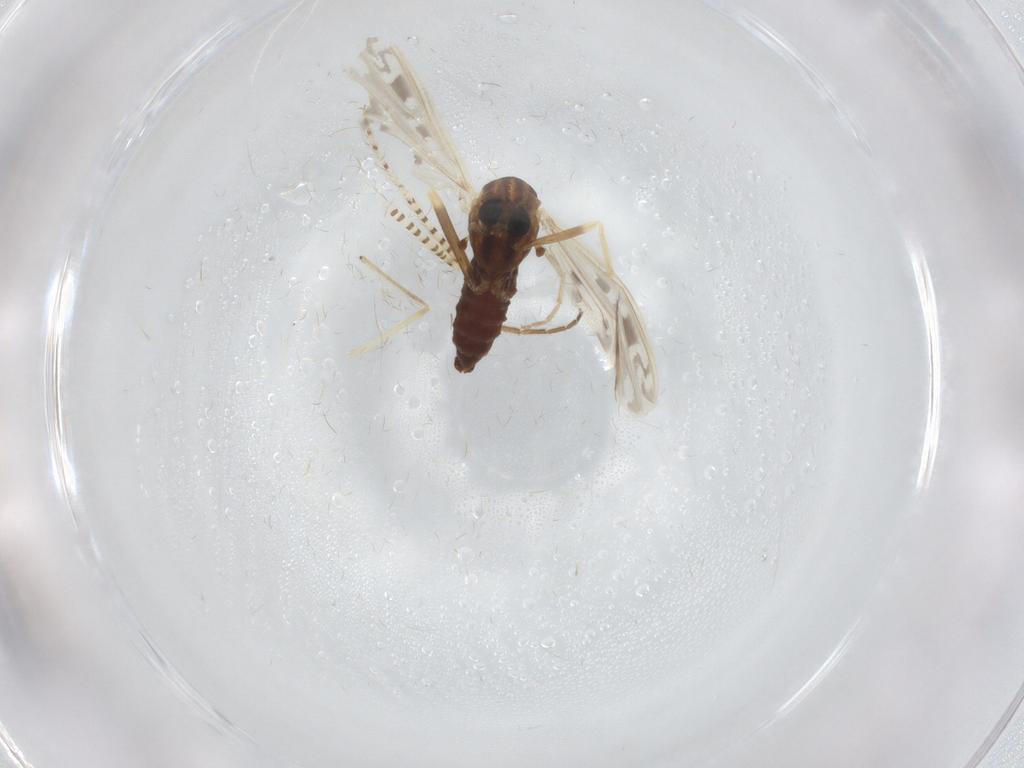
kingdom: Animalia
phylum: Arthropoda
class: Insecta
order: Diptera
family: Chironomidae
